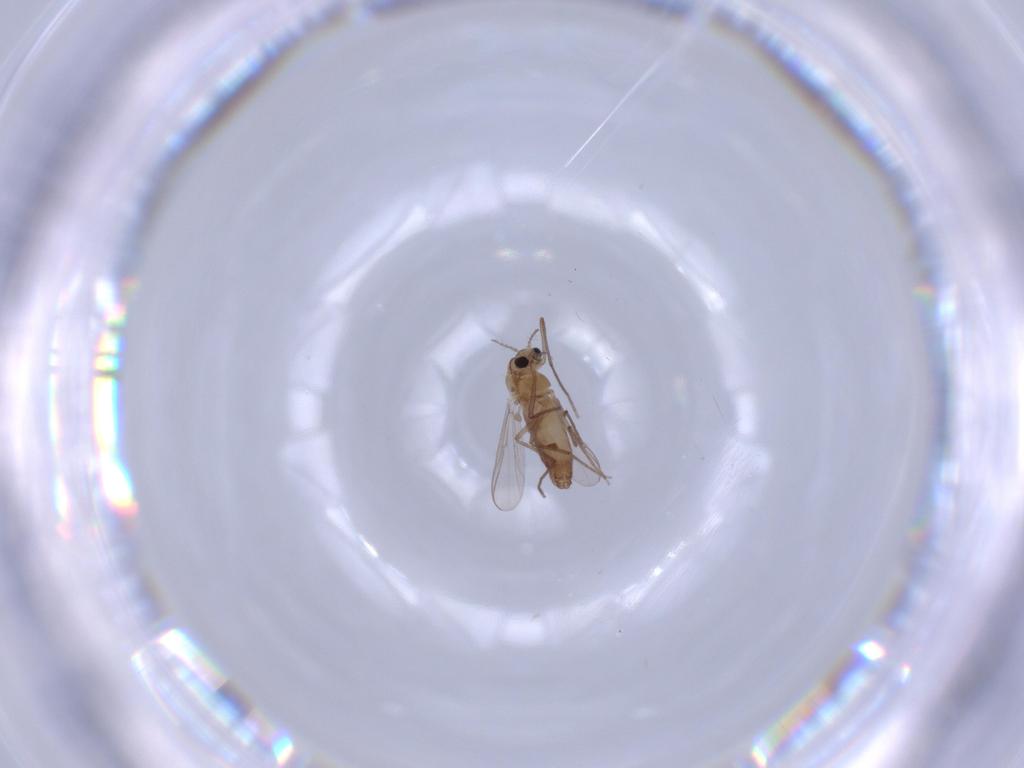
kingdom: Animalia
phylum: Arthropoda
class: Insecta
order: Diptera
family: Chironomidae
